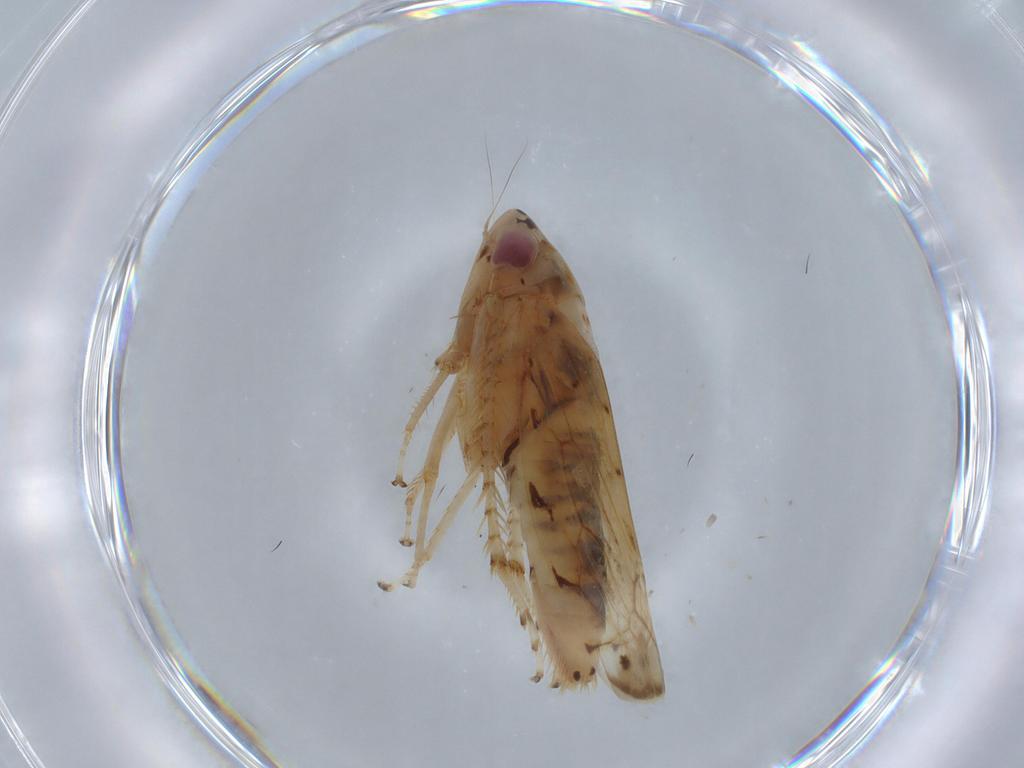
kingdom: Animalia
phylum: Arthropoda
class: Insecta
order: Hemiptera
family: Cicadellidae
